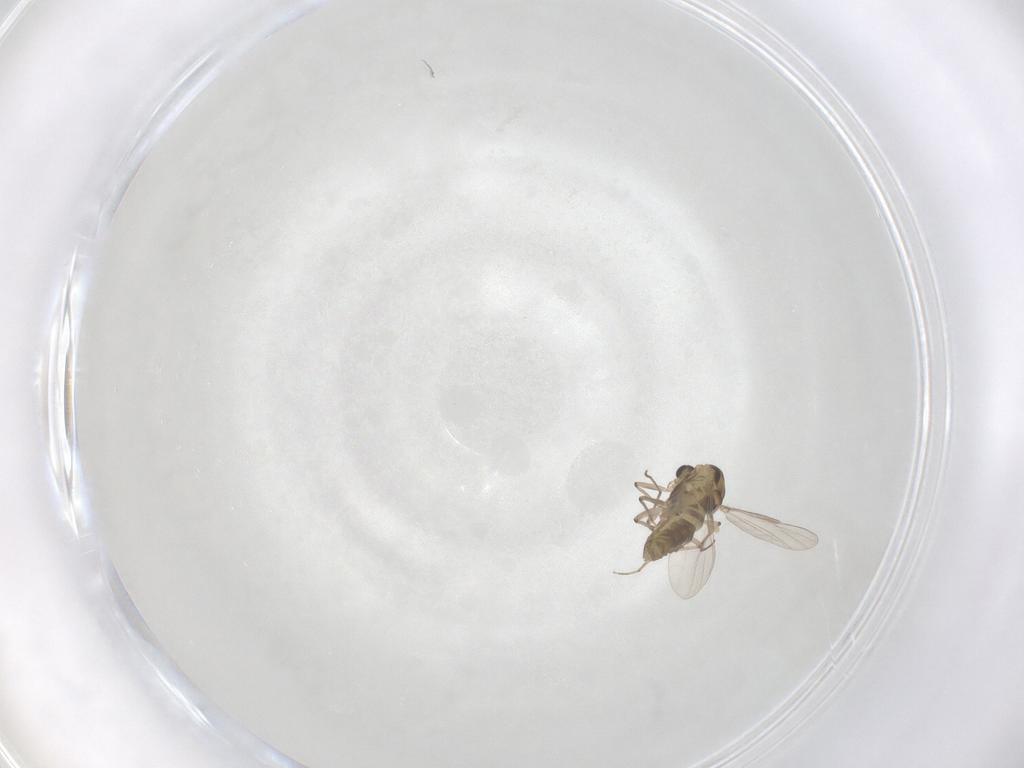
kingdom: Animalia
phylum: Arthropoda
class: Insecta
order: Diptera
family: Chironomidae
